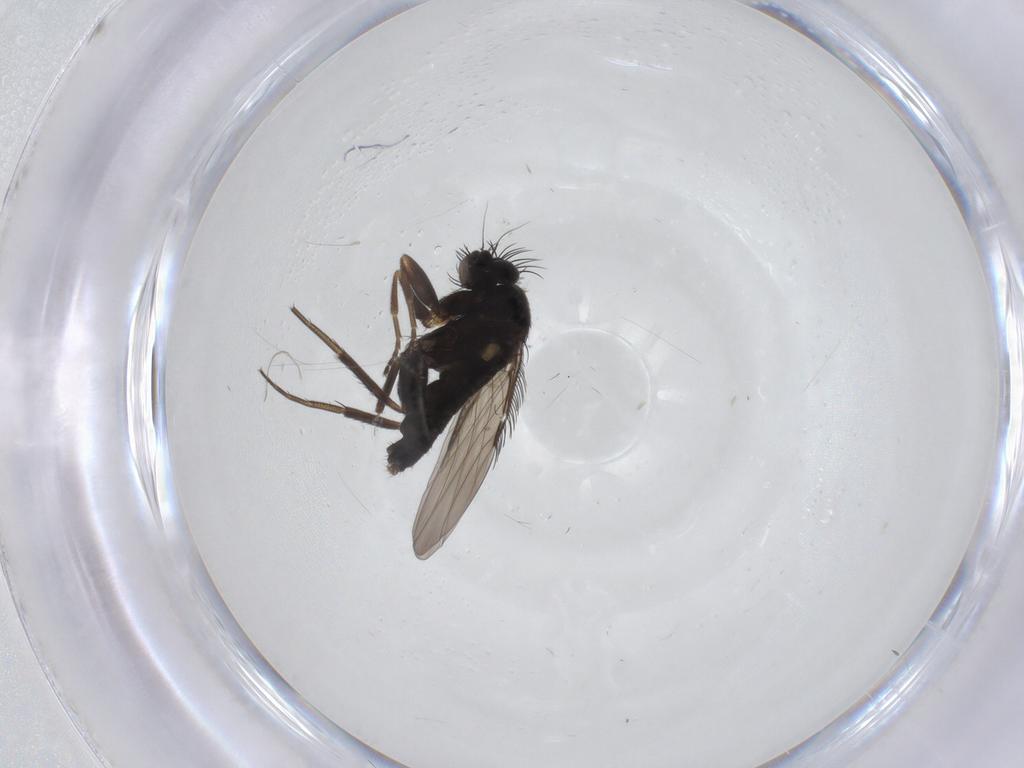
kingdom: Animalia
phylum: Arthropoda
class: Insecta
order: Diptera
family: Phoridae
